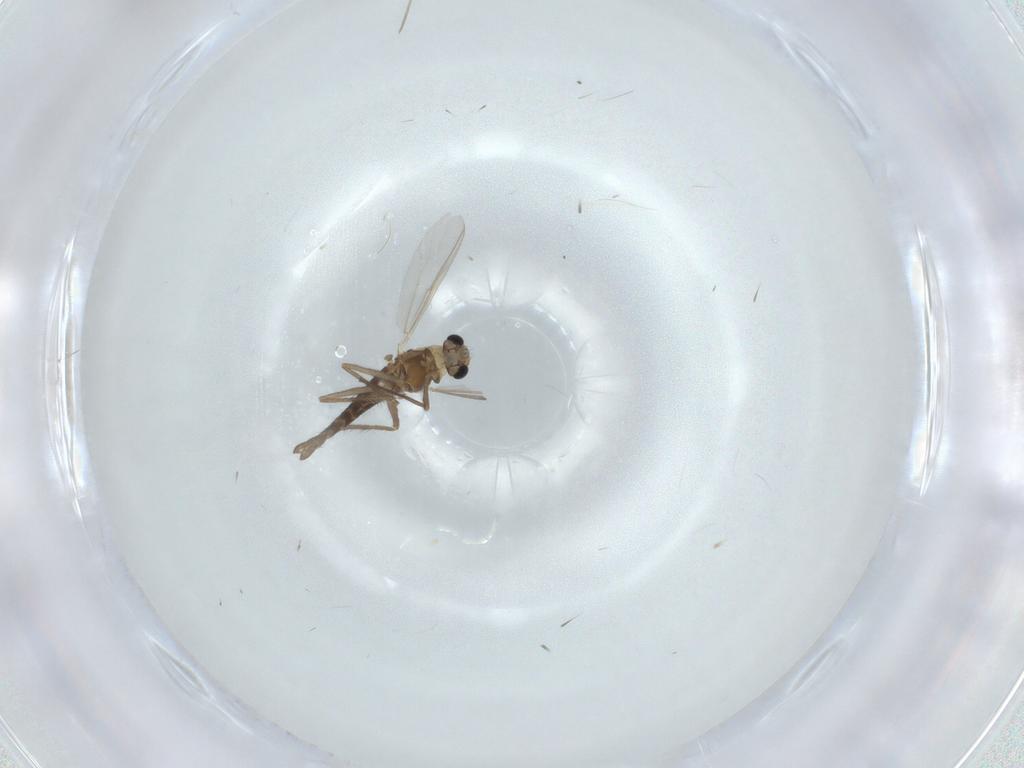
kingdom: Animalia
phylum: Arthropoda
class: Insecta
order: Diptera
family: Chironomidae
